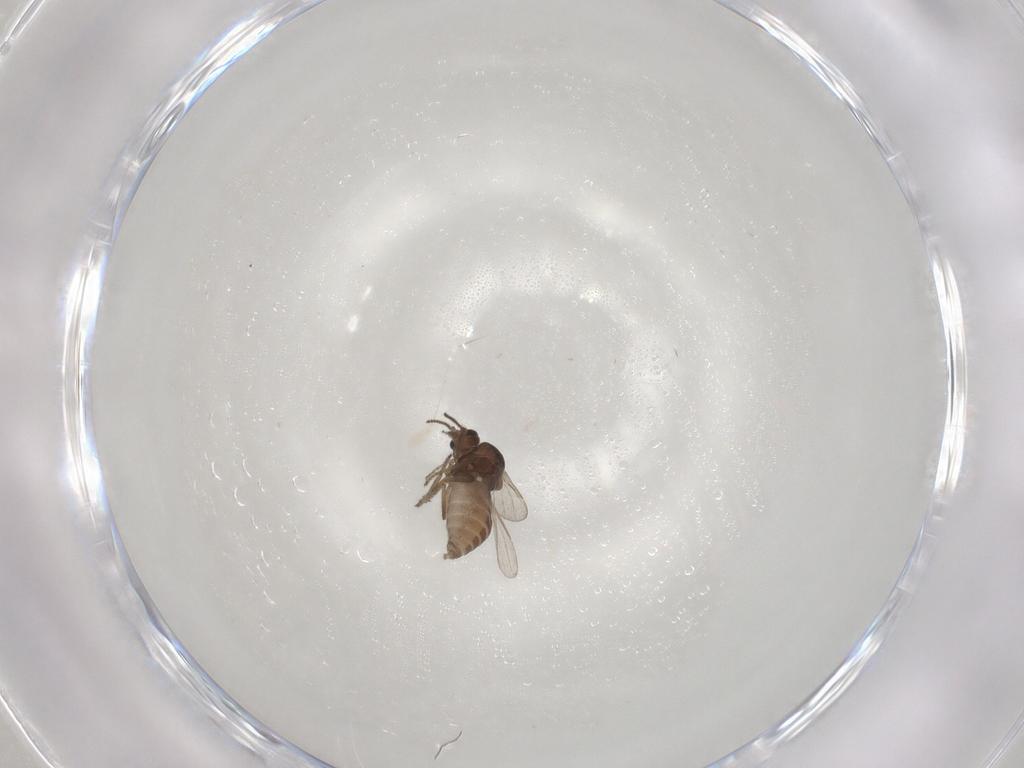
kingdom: Animalia
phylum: Arthropoda
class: Insecta
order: Diptera
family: Ceratopogonidae
